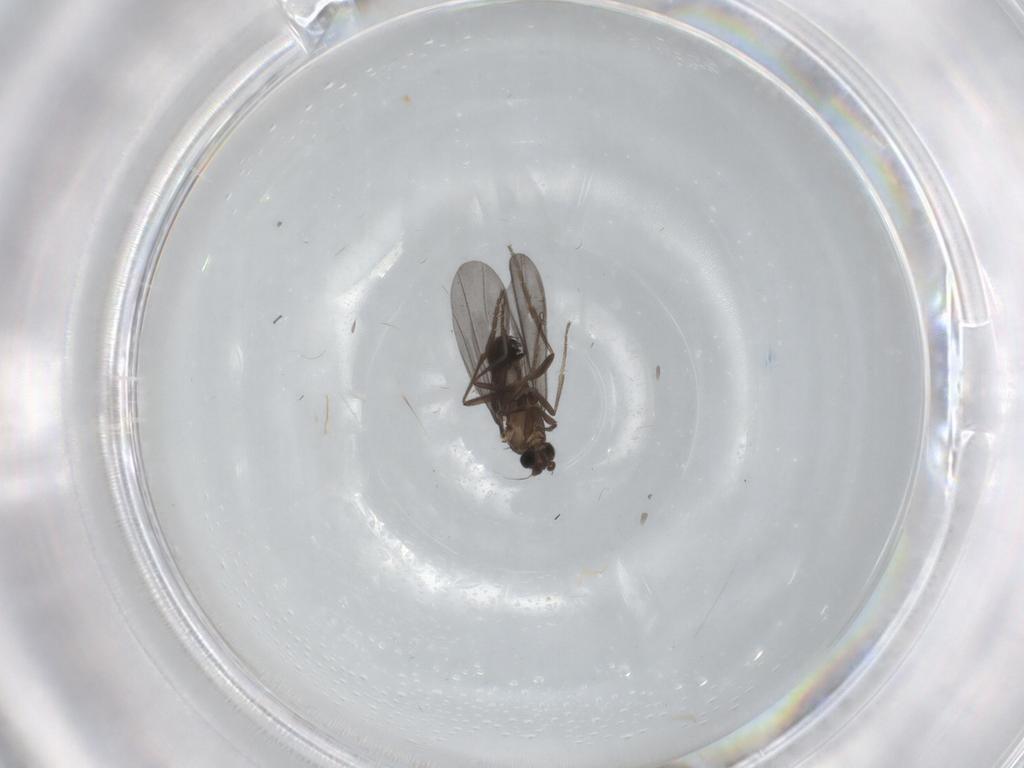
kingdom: Animalia
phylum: Arthropoda
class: Insecta
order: Diptera
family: Phoridae
